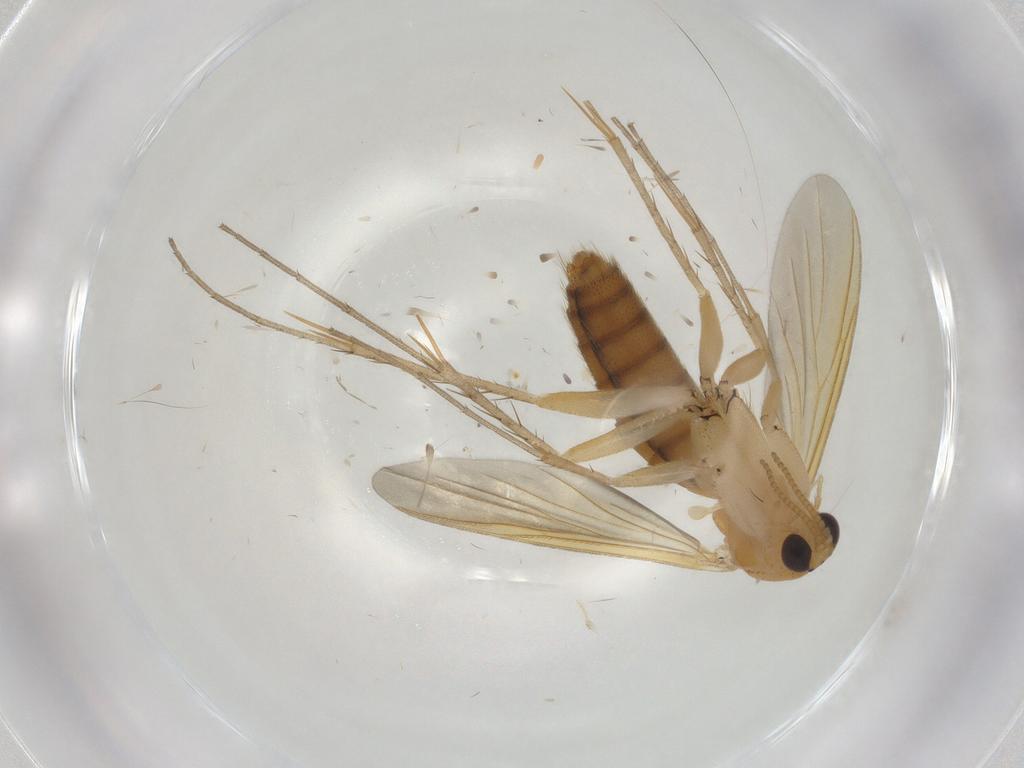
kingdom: Animalia
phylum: Arthropoda
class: Insecta
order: Diptera
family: Mycetophilidae
